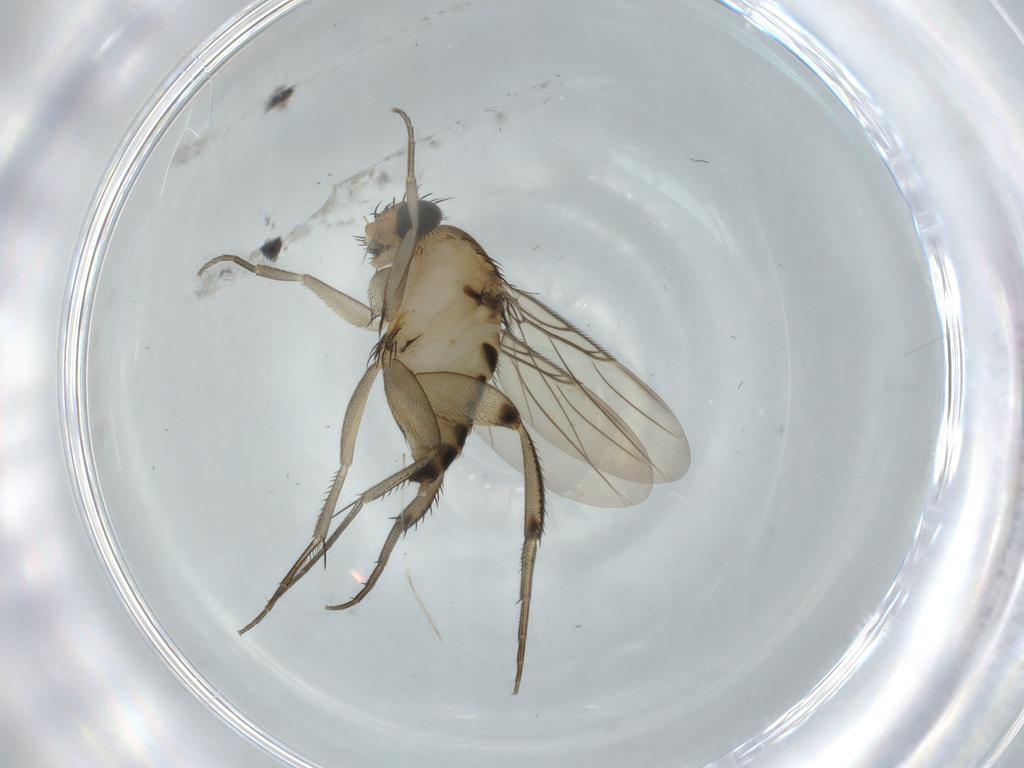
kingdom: Animalia
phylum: Arthropoda
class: Insecta
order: Diptera
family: Phoridae
